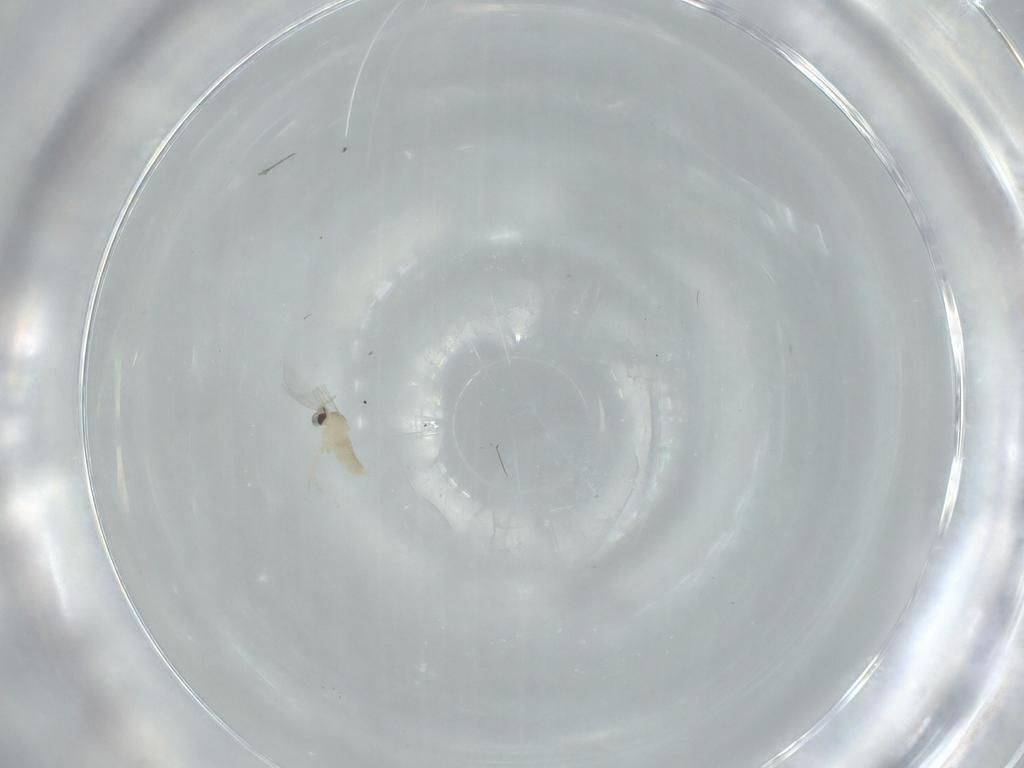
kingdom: Animalia
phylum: Arthropoda
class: Insecta
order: Diptera
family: Cecidomyiidae
